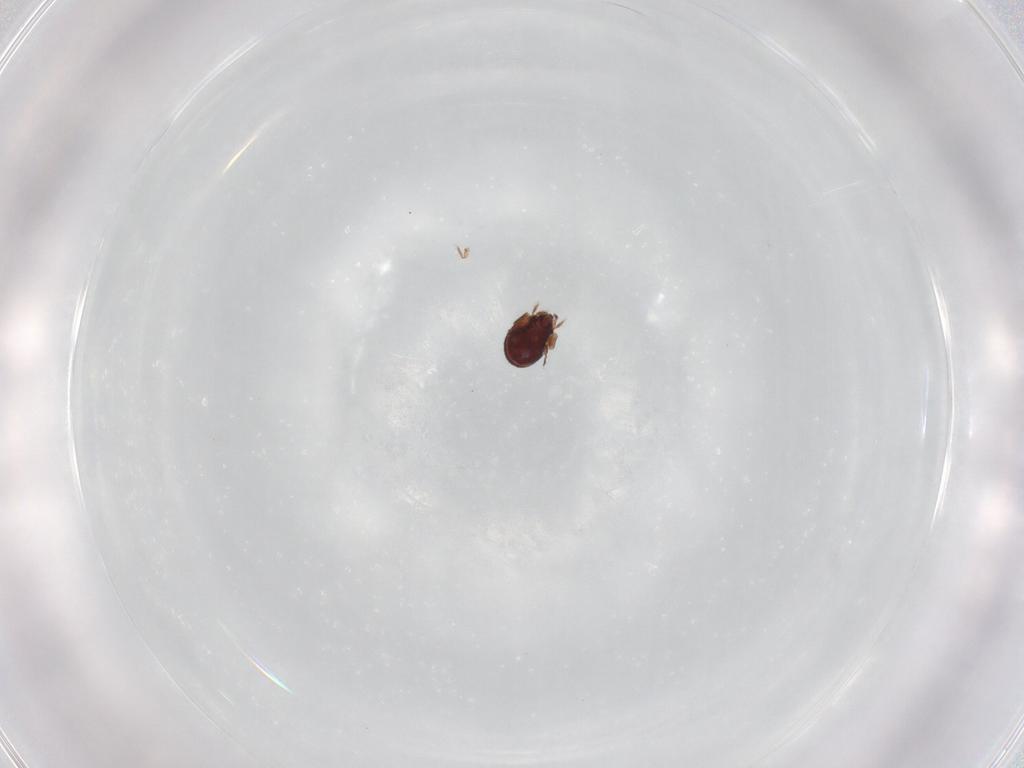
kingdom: Animalia
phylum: Arthropoda
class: Arachnida
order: Sarcoptiformes
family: Phenopelopidae
